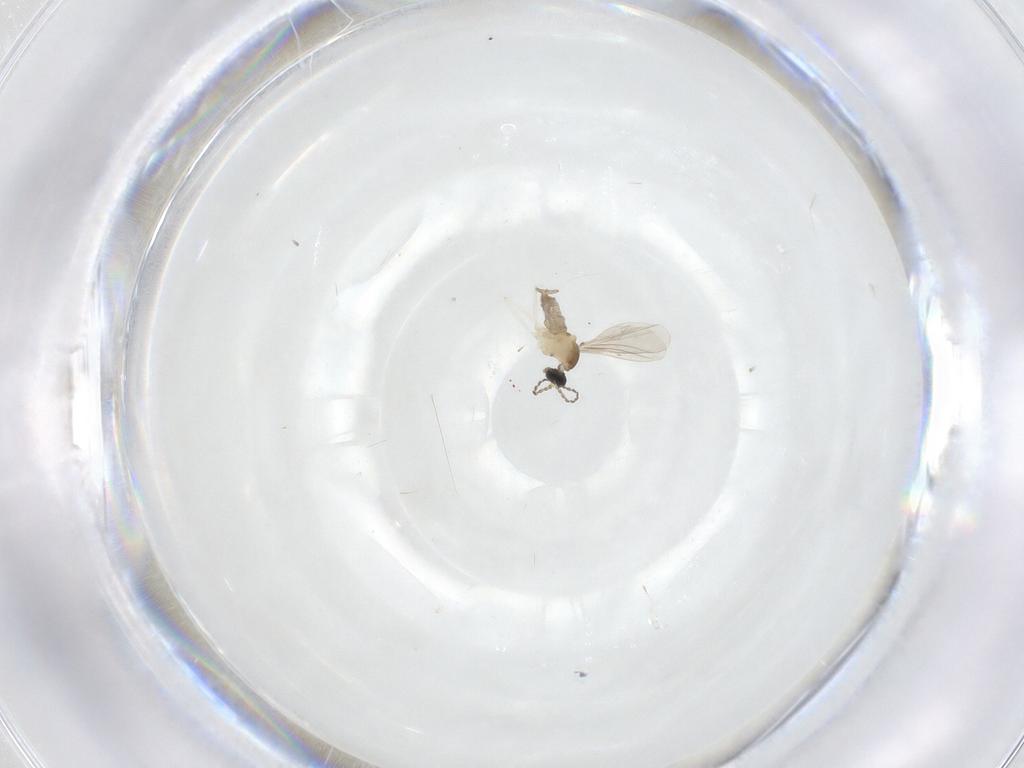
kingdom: Animalia
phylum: Arthropoda
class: Insecta
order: Diptera
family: Cecidomyiidae
